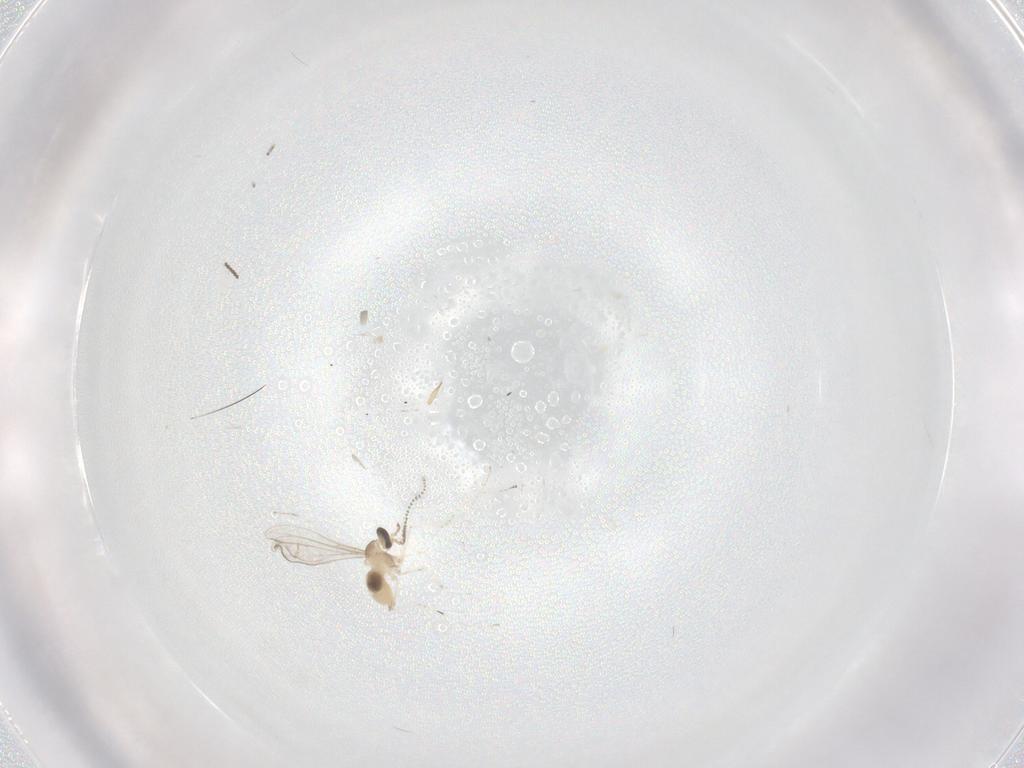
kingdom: Animalia
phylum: Arthropoda
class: Insecta
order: Diptera
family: Cecidomyiidae
